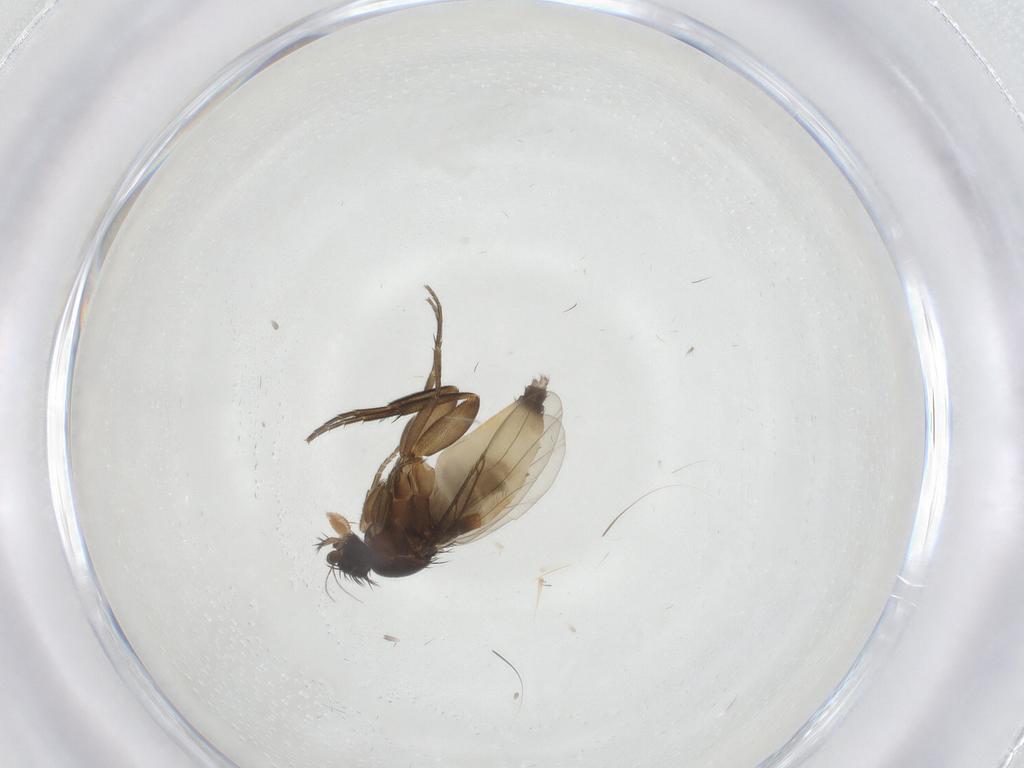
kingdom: Animalia
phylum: Arthropoda
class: Insecta
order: Diptera
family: Phoridae
